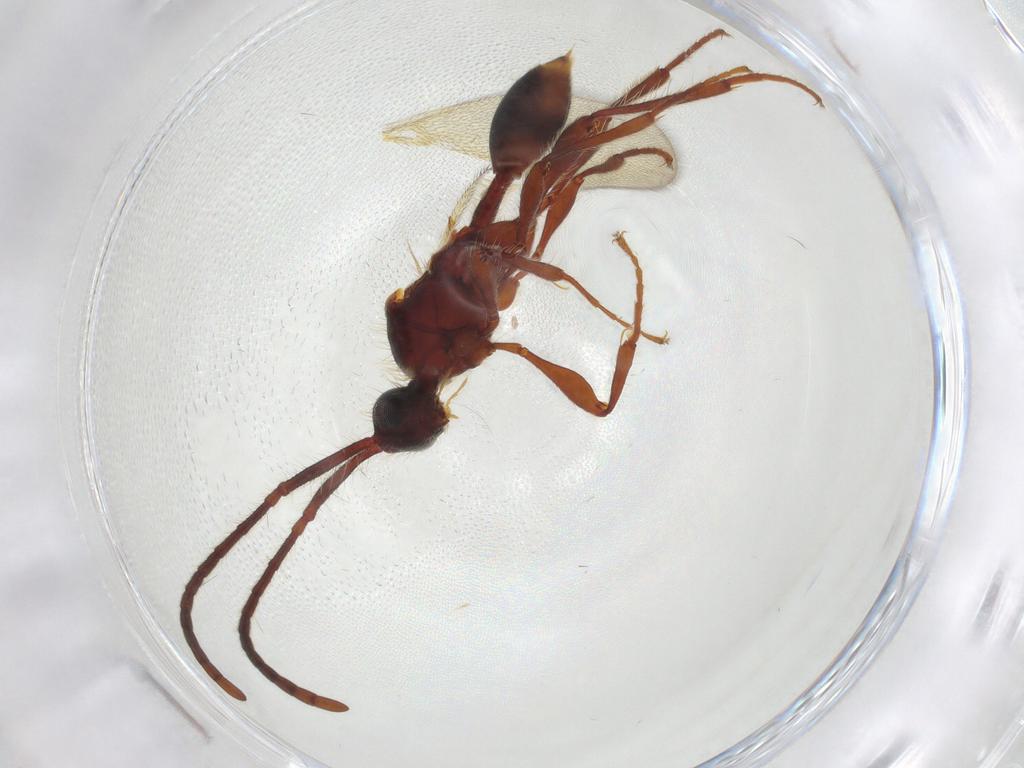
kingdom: Animalia
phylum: Arthropoda
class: Insecta
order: Hymenoptera
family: Diapriidae
